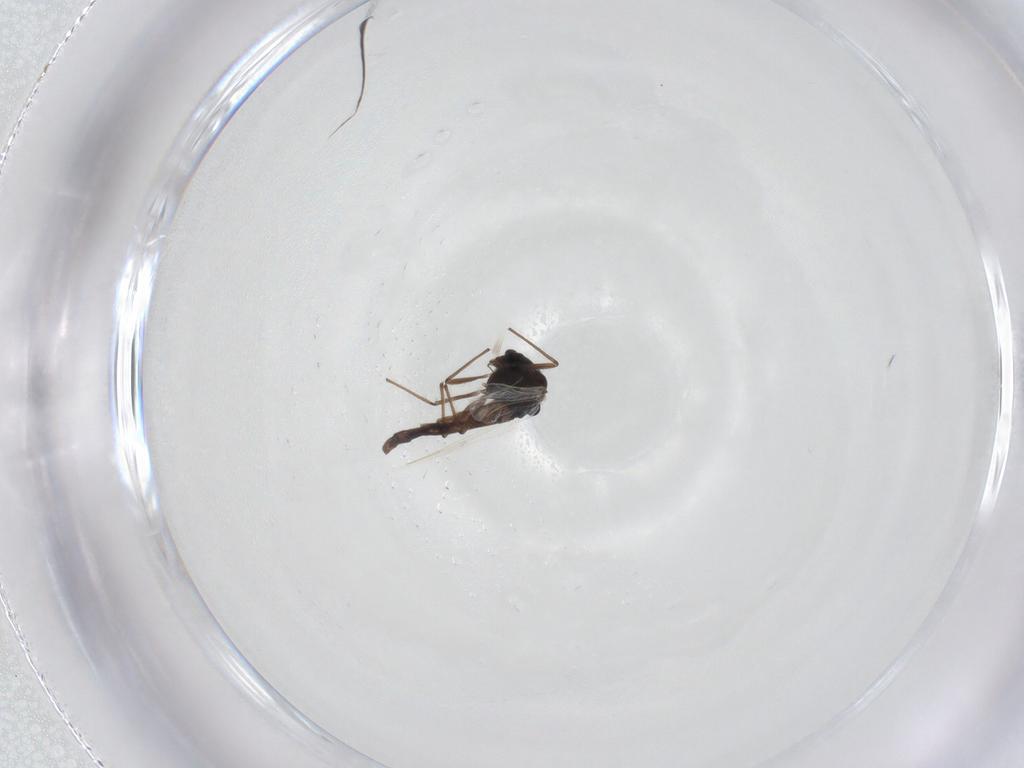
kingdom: Animalia
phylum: Arthropoda
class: Insecta
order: Diptera
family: Chironomidae
